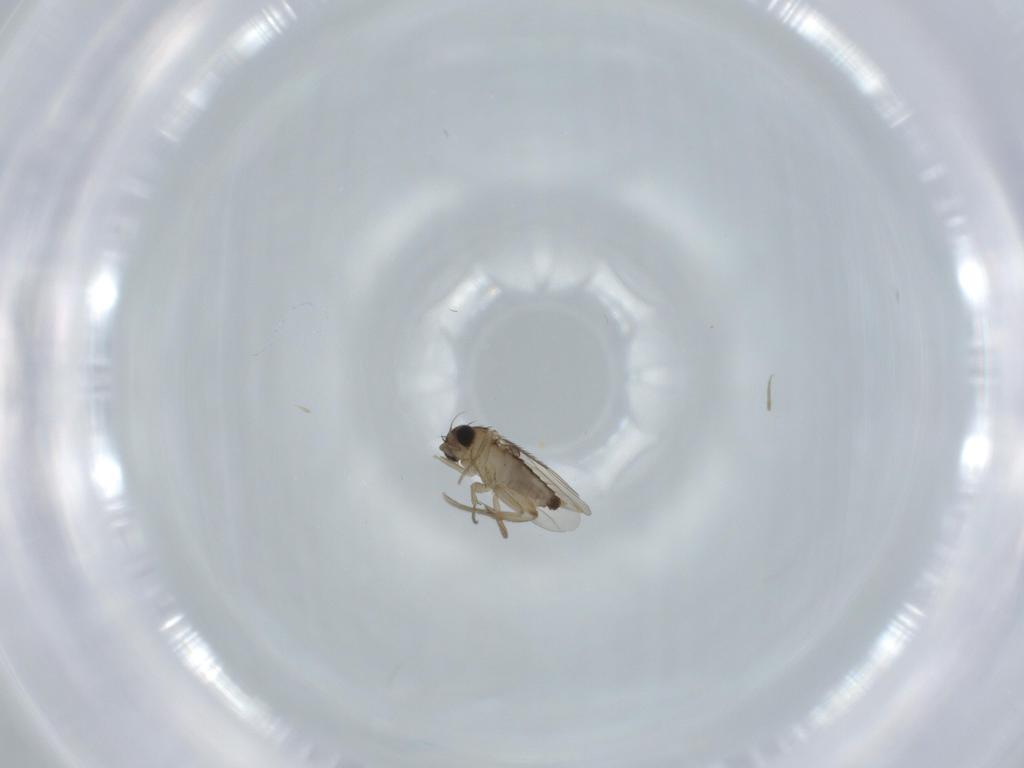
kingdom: Animalia
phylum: Arthropoda
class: Insecta
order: Diptera
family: Phoridae
